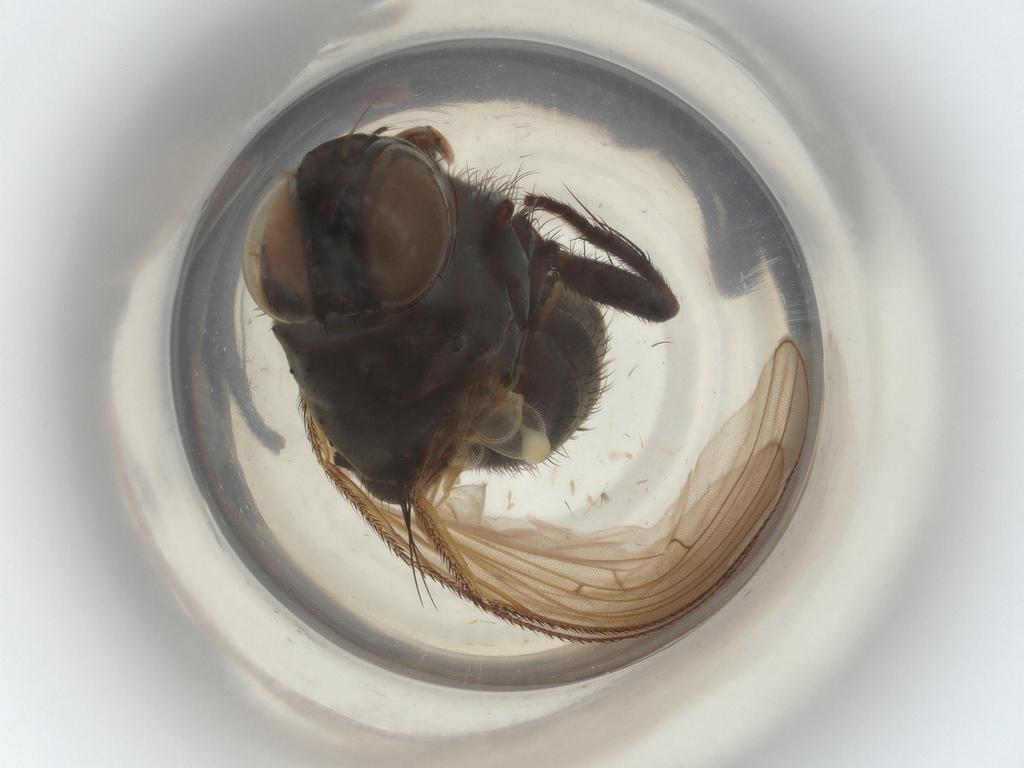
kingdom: Animalia
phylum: Arthropoda
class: Insecta
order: Diptera
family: Muscidae
